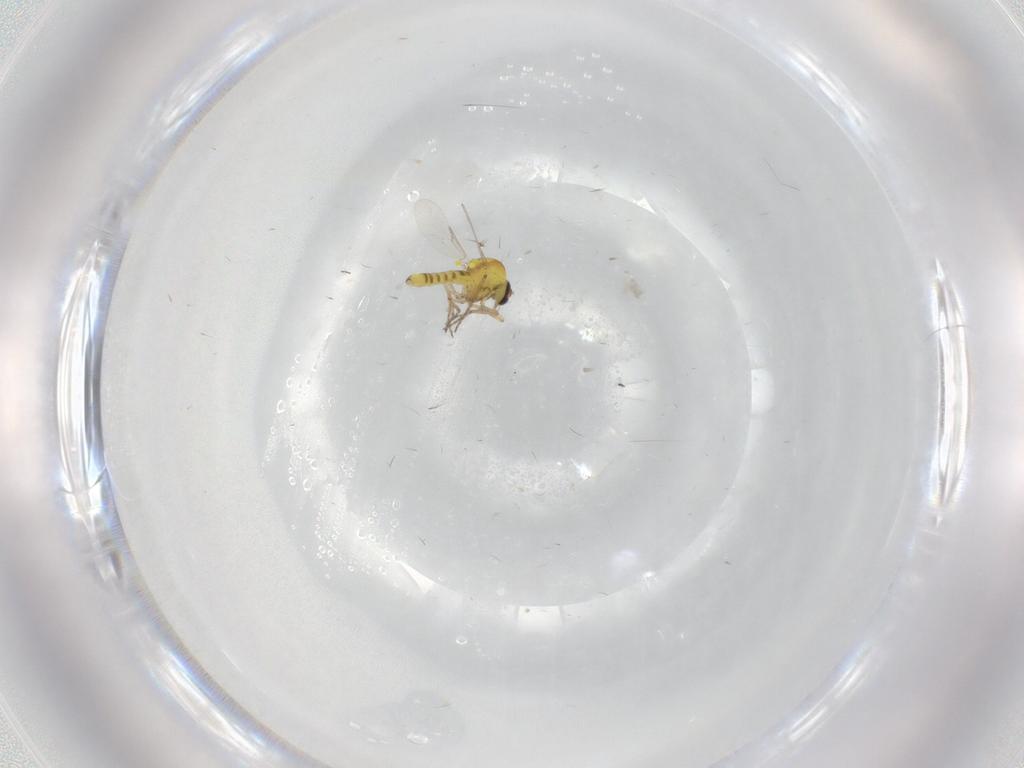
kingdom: Animalia
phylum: Arthropoda
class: Insecta
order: Diptera
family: Ceratopogonidae
